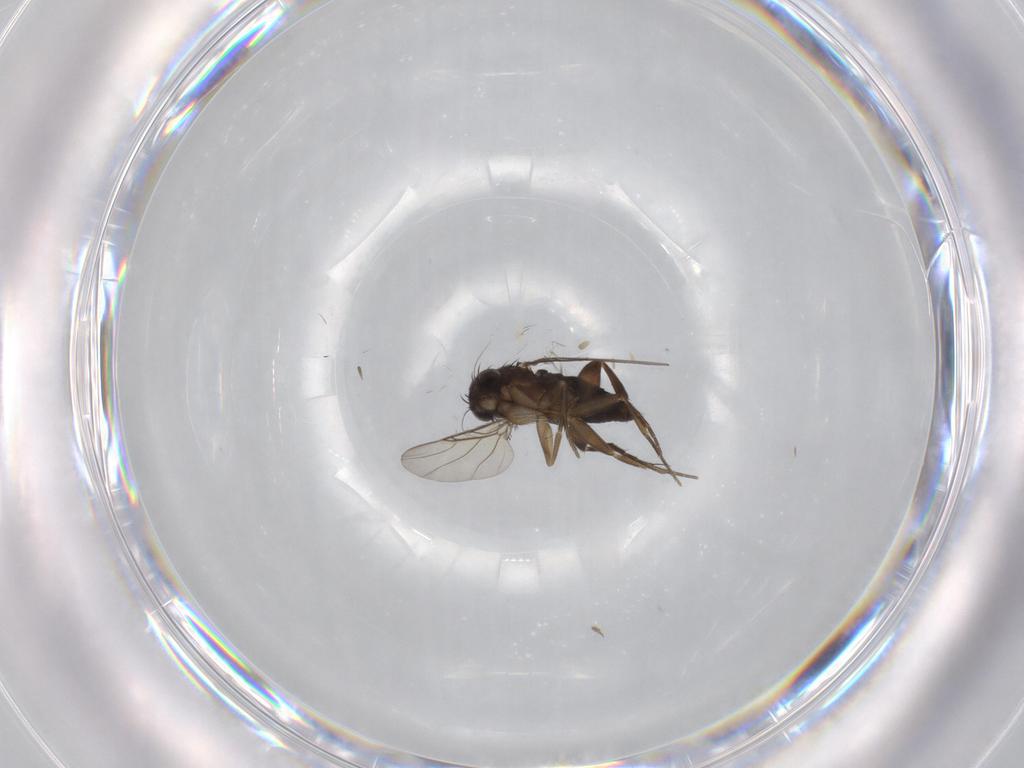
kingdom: Animalia
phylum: Arthropoda
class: Insecta
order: Diptera
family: Phoridae
